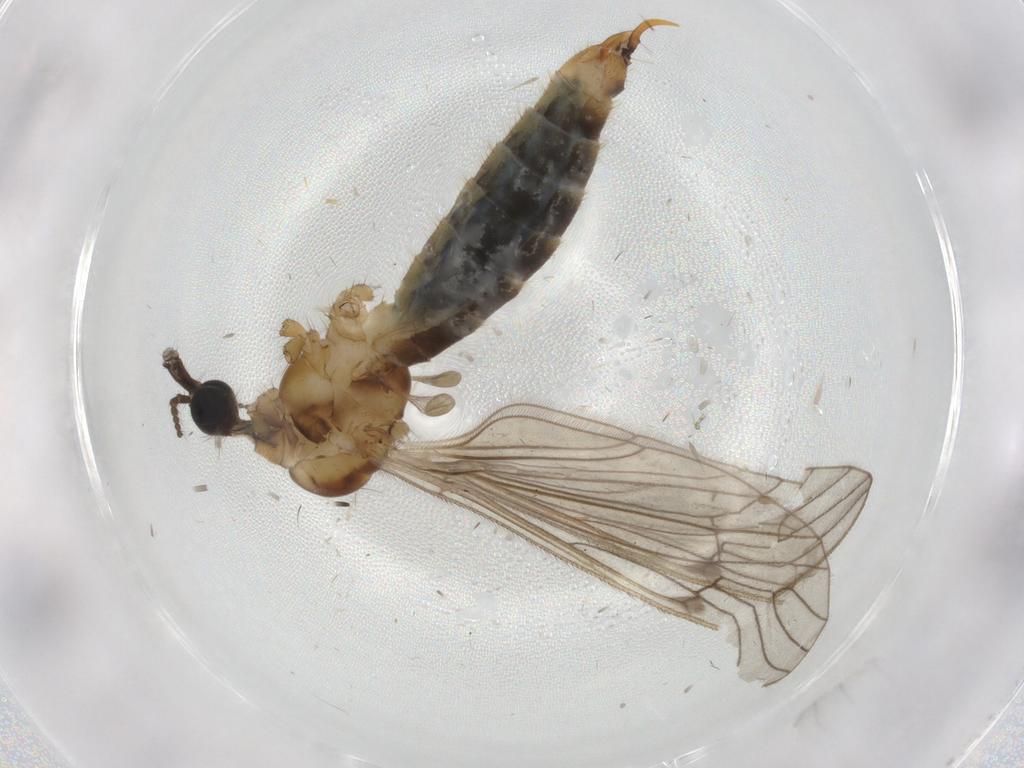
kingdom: Animalia
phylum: Arthropoda
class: Insecta
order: Diptera
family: Limoniidae
